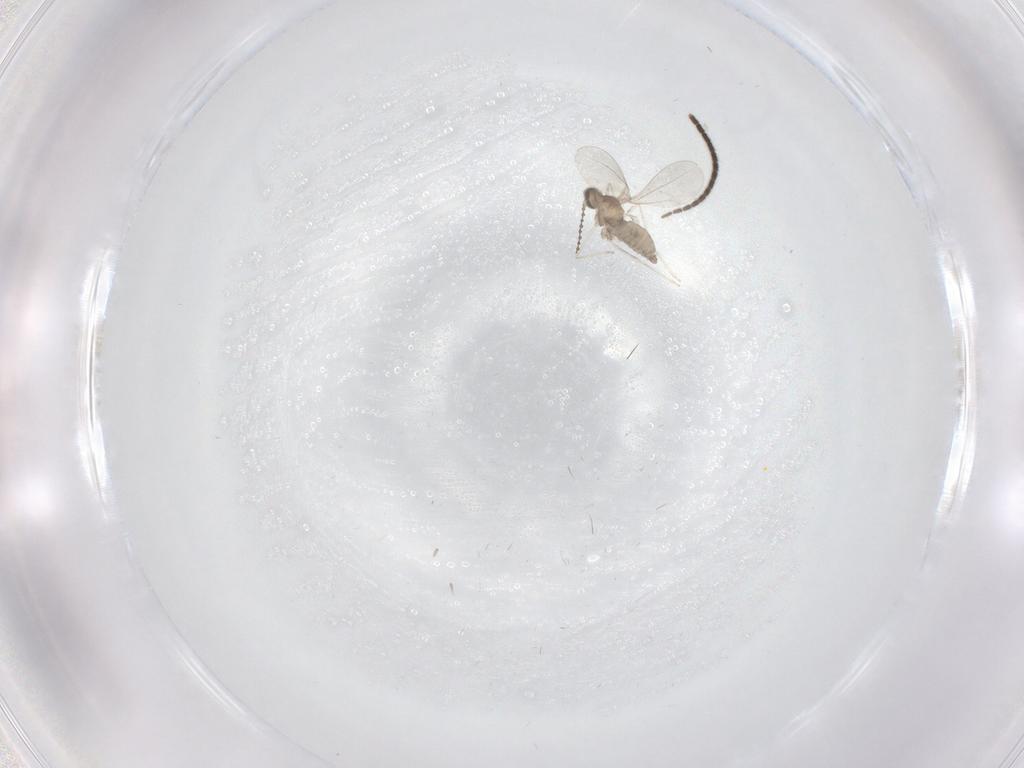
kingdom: Animalia
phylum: Arthropoda
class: Insecta
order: Diptera
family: Cecidomyiidae
